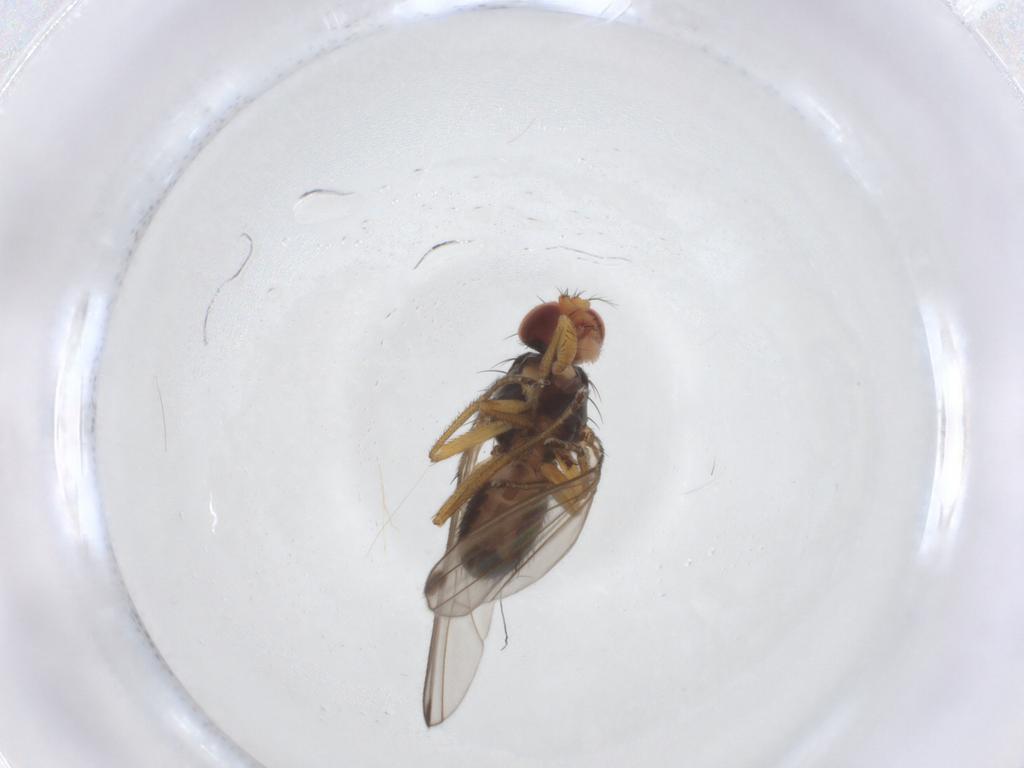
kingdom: Animalia
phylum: Arthropoda
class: Insecta
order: Diptera
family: Drosophilidae
